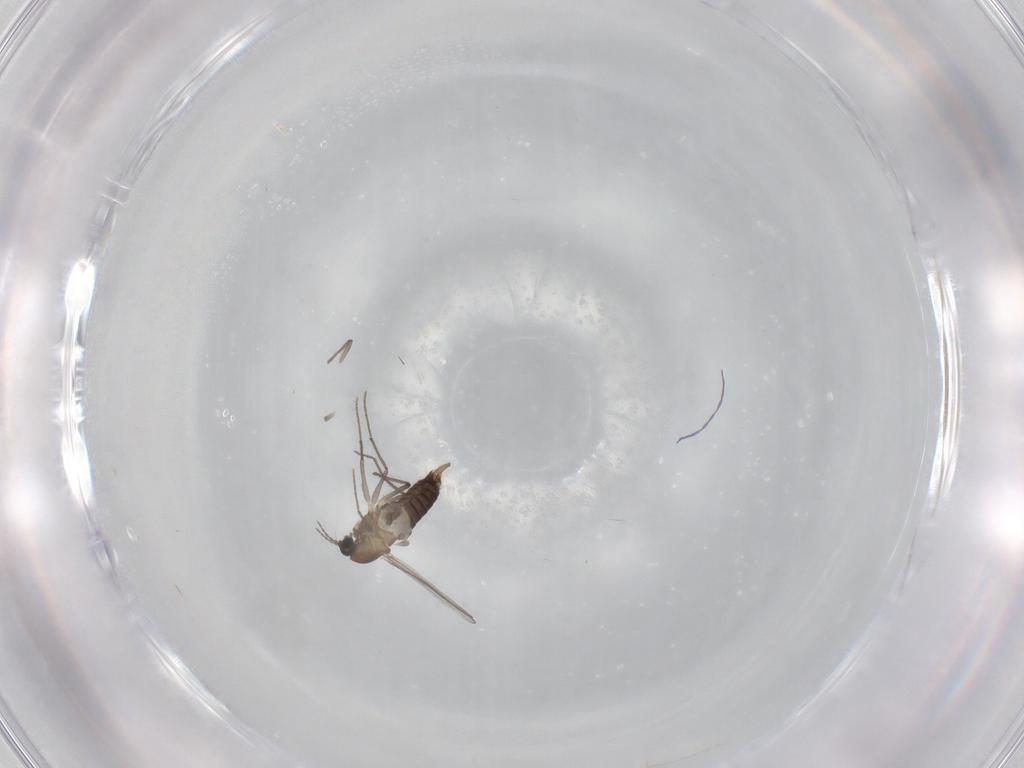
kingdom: Animalia
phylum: Arthropoda
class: Insecta
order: Diptera
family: Chironomidae
